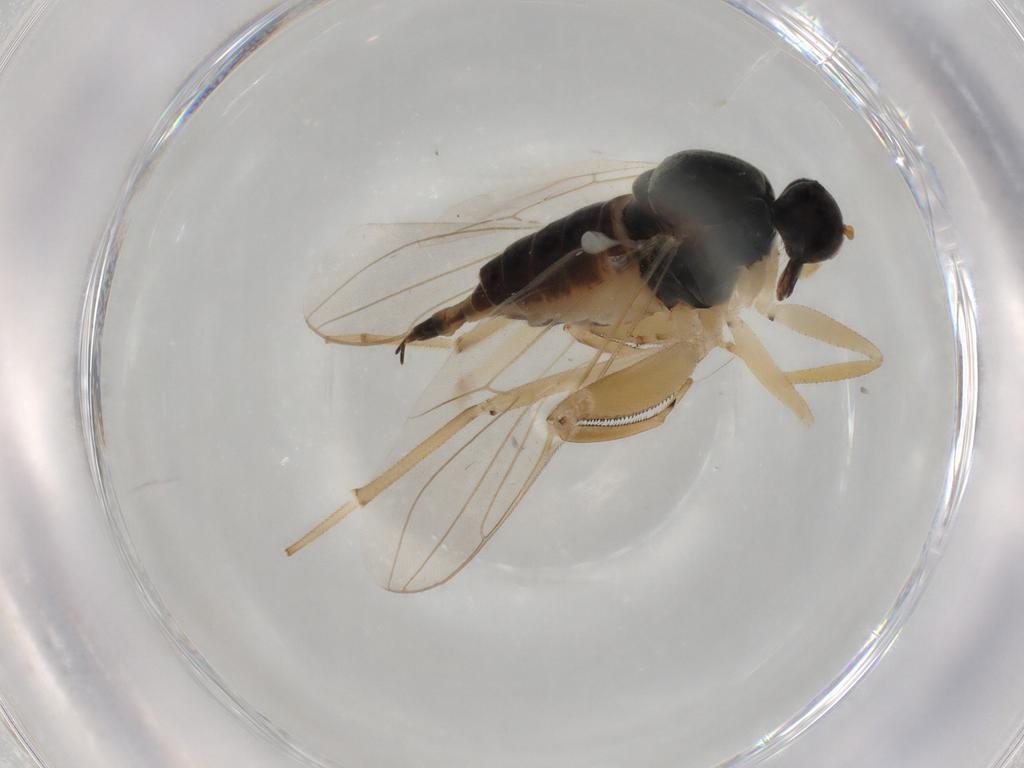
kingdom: Animalia
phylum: Arthropoda
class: Insecta
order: Diptera
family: Hybotidae
